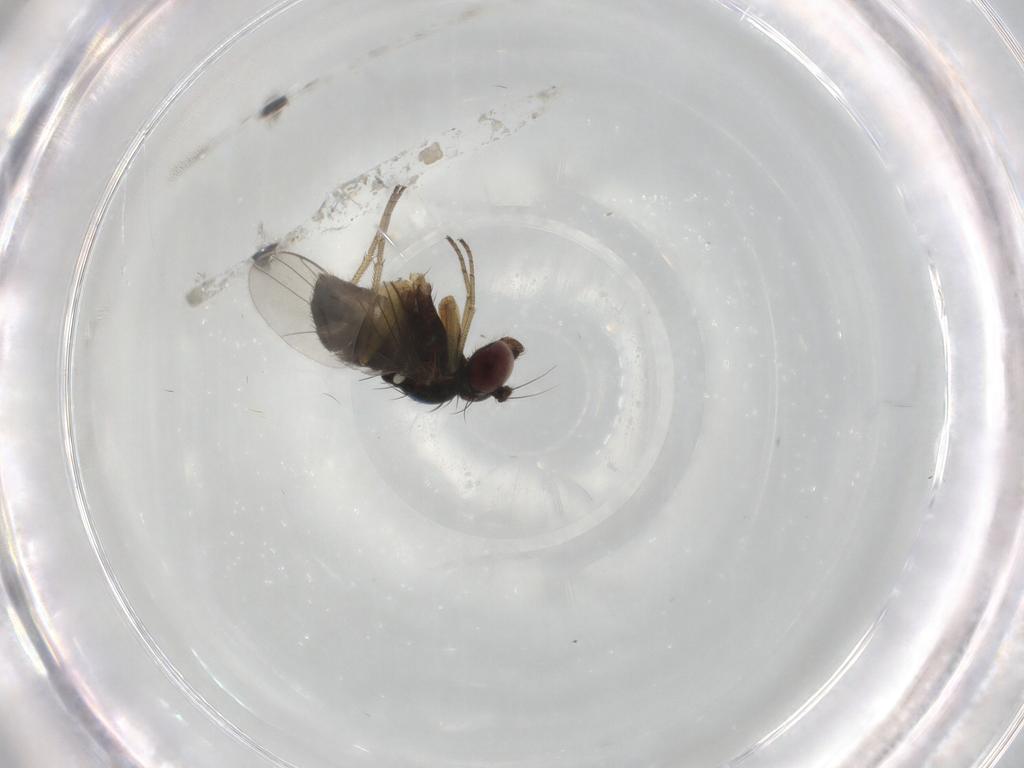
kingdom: Animalia
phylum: Arthropoda
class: Insecta
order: Diptera
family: Dolichopodidae
